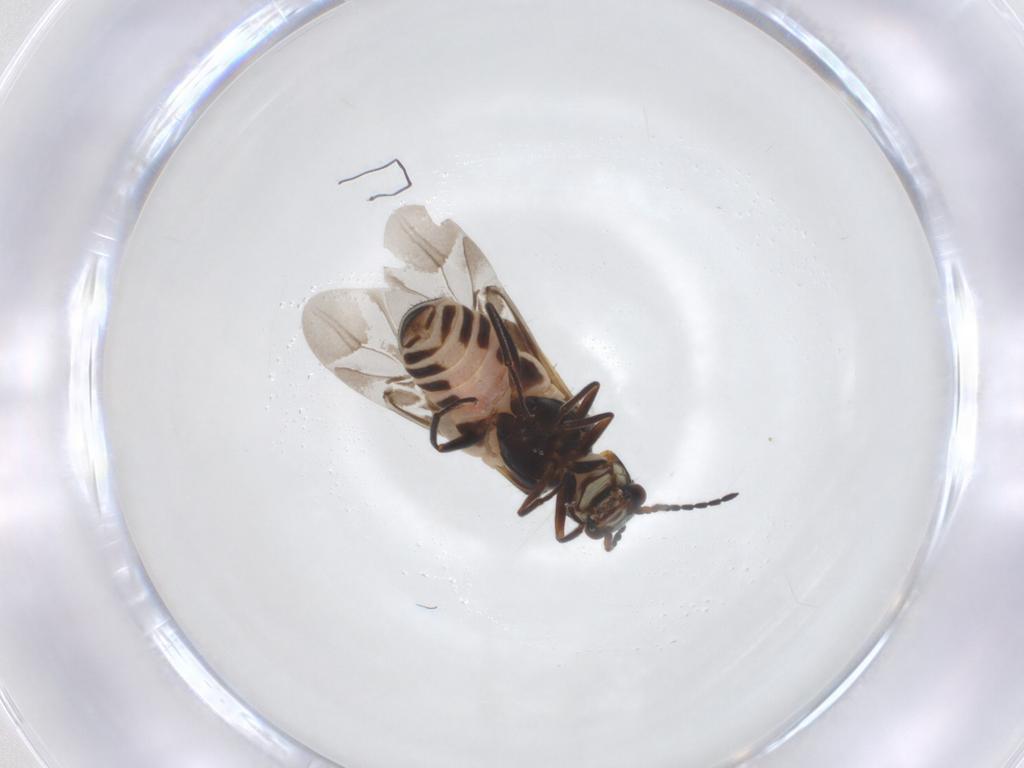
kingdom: Animalia
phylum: Arthropoda
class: Insecta
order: Coleoptera
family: Melyridae
